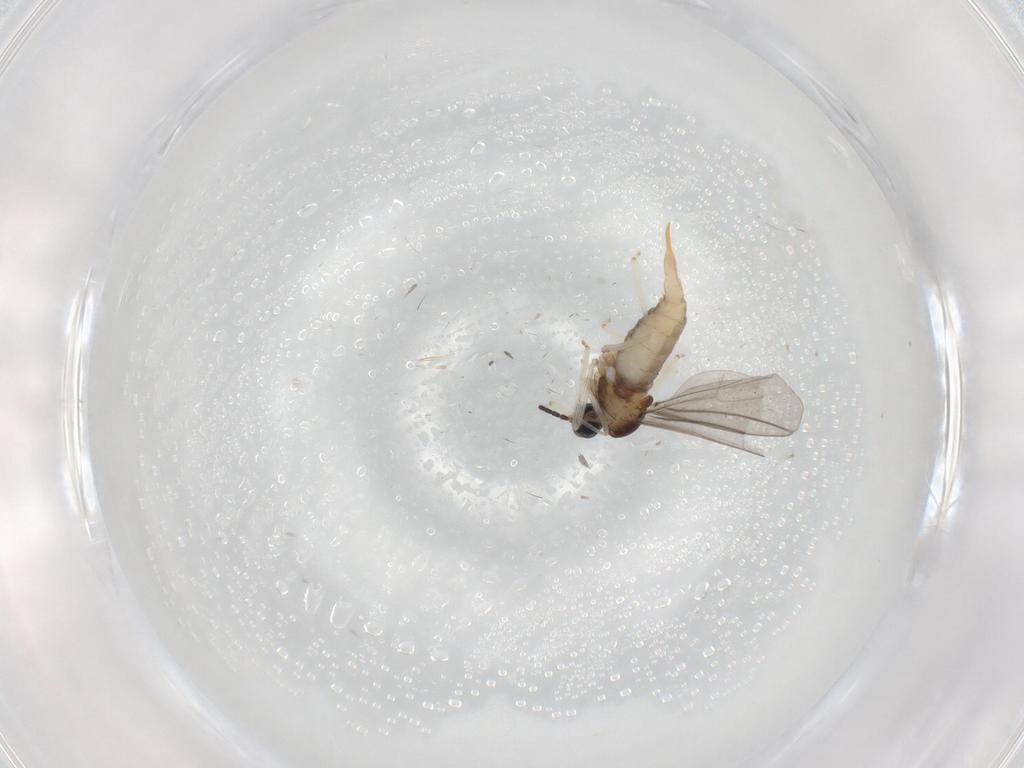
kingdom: Animalia
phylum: Arthropoda
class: Insecta
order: Diptera
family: Cecidomyiidae
